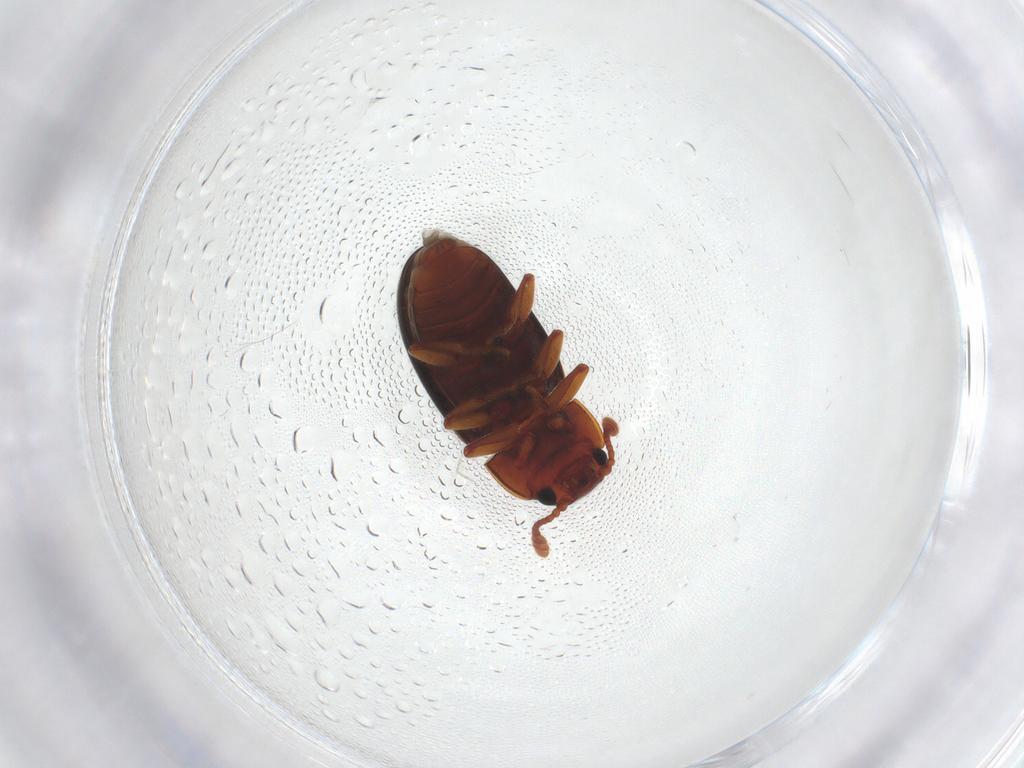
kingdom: Animalia
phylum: Arthropoda
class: Insecta
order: Coleoptera
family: Erotylidae
